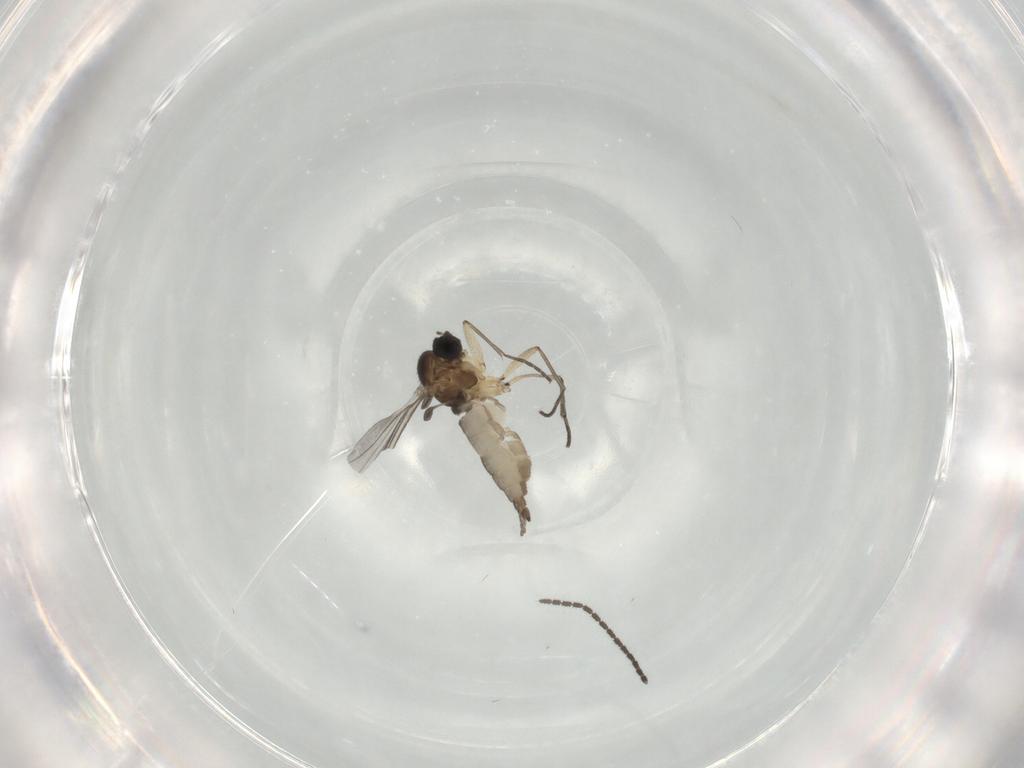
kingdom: Animalia
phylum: Arthropoda
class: Insecta
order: Diptera
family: Sciaridae
